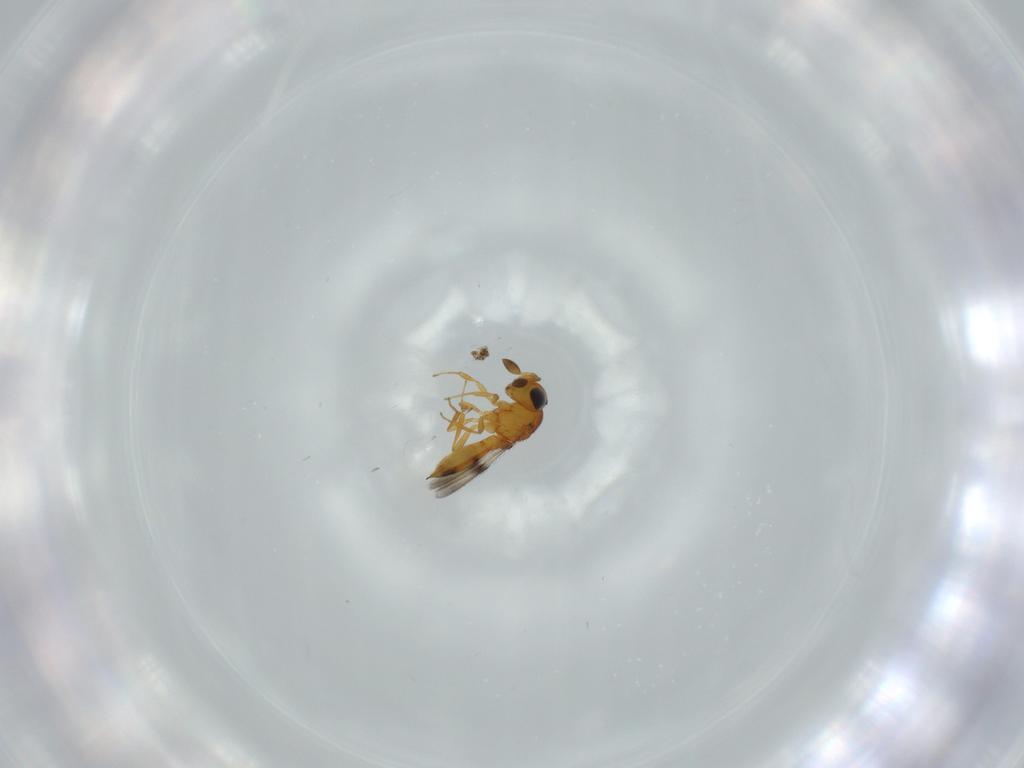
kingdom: Animalia
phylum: Arthropoda
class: Insecta
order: Hymenoptera
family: Scelionidae
